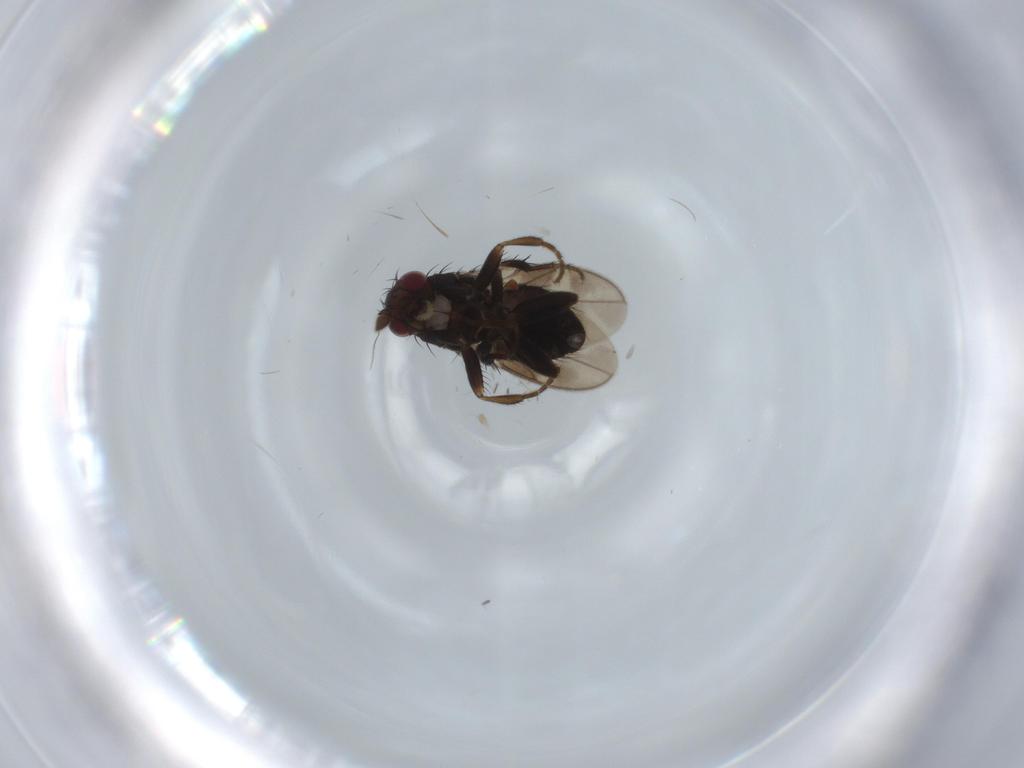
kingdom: Animalia
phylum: Arthropoda
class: Insecta
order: Diptera
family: Sphaeroceridae
